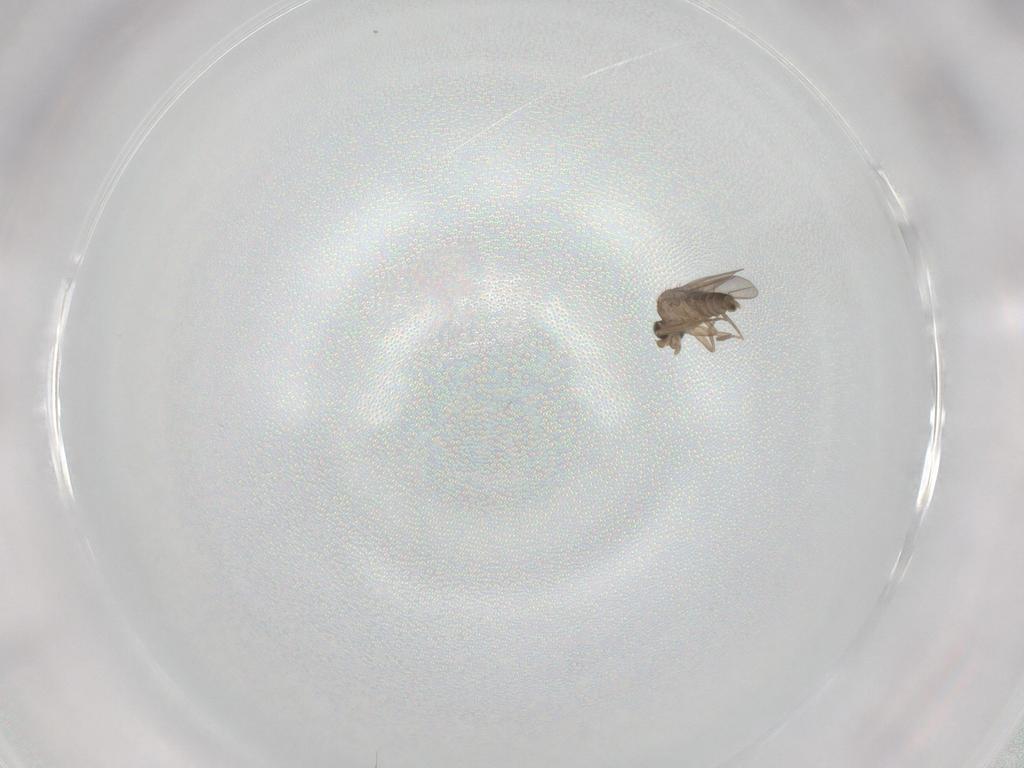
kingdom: Animalia
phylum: Arthropoda
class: Insecta
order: Diptera
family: Phoridae
